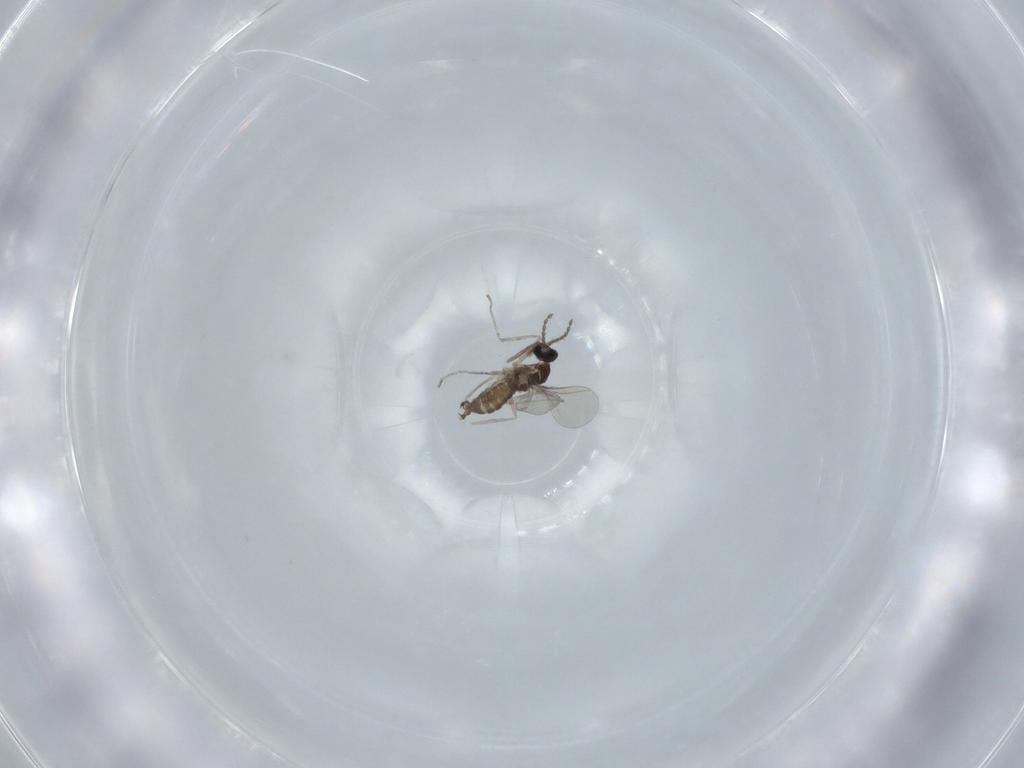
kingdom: Animalia
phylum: Arthropoda
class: Insecta
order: Diptera
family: Cecidomyiidae
